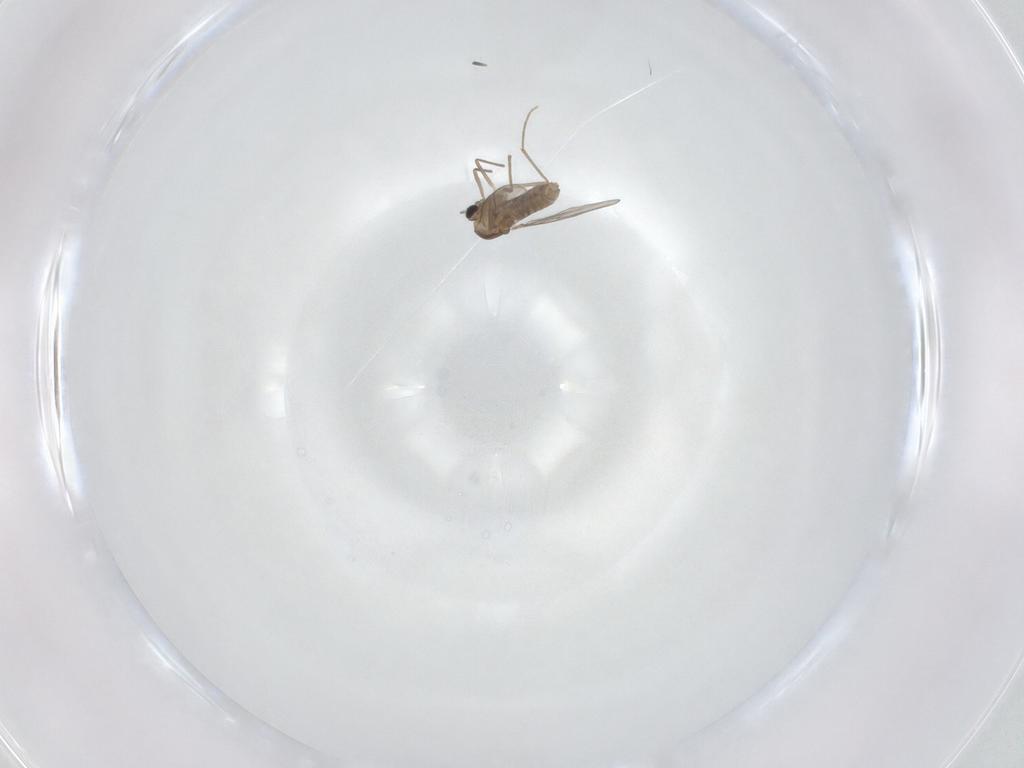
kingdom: Animalia
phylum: Arthropoda
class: Insecta
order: Diptera
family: Chironomidae
